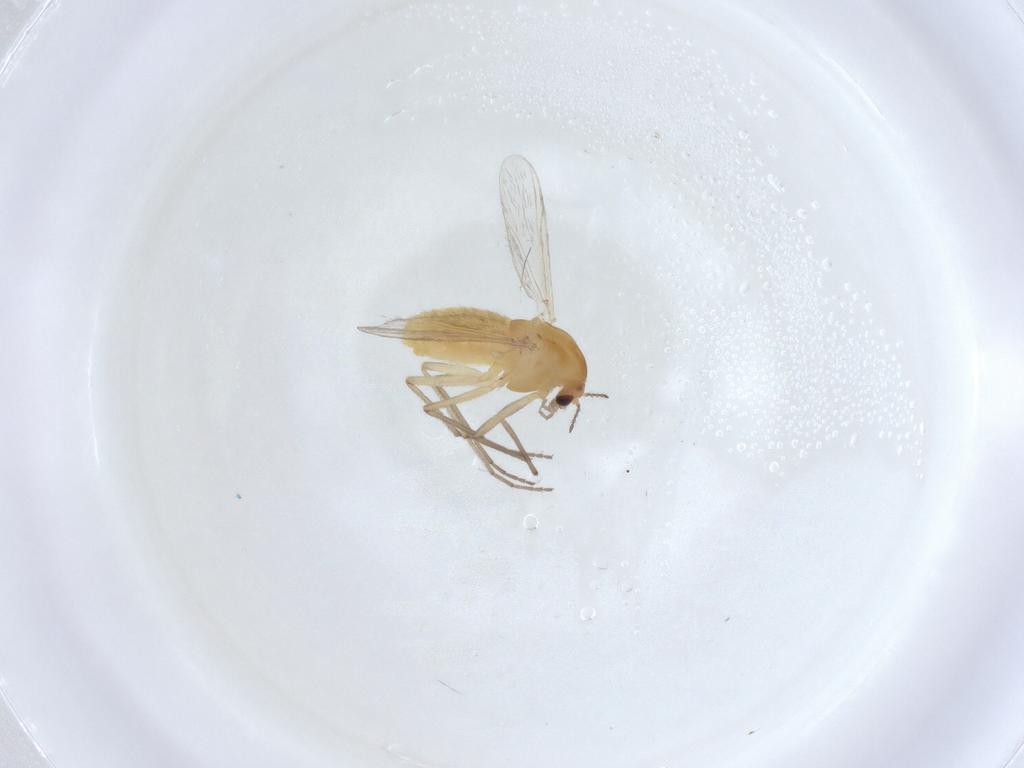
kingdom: Animalia
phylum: Arthropoda
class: Insecta
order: Diptera
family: Chironomidae
